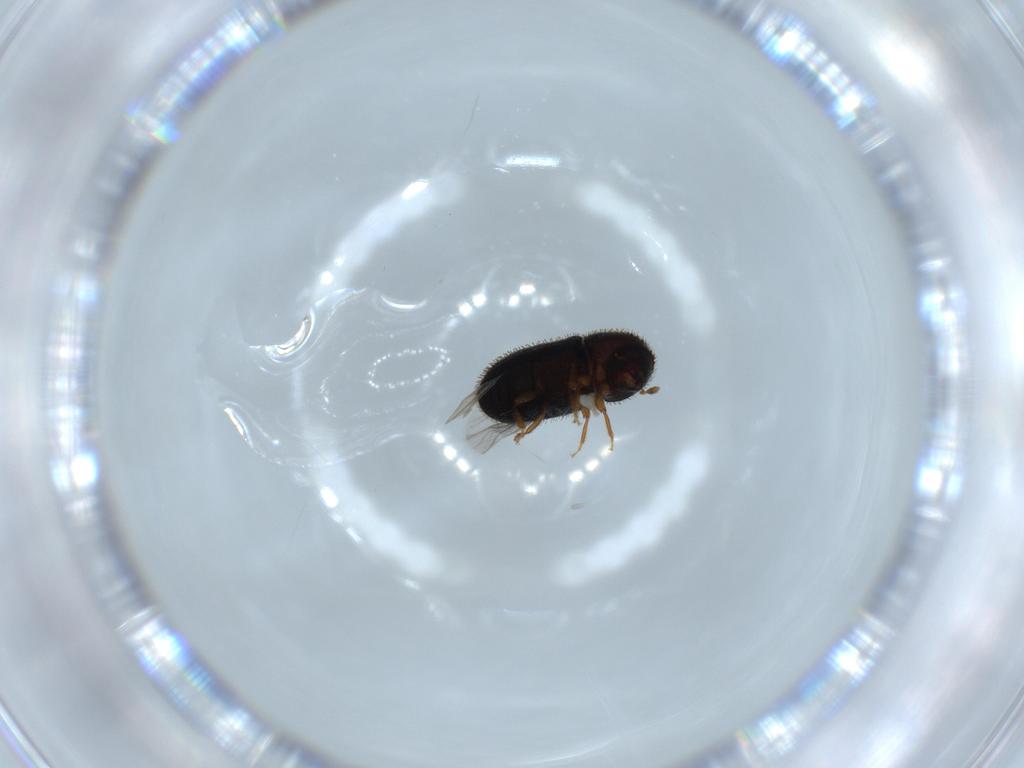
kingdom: Animalia
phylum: Arthropoda
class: Insecta
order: Coleoptera
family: Curculionidae
